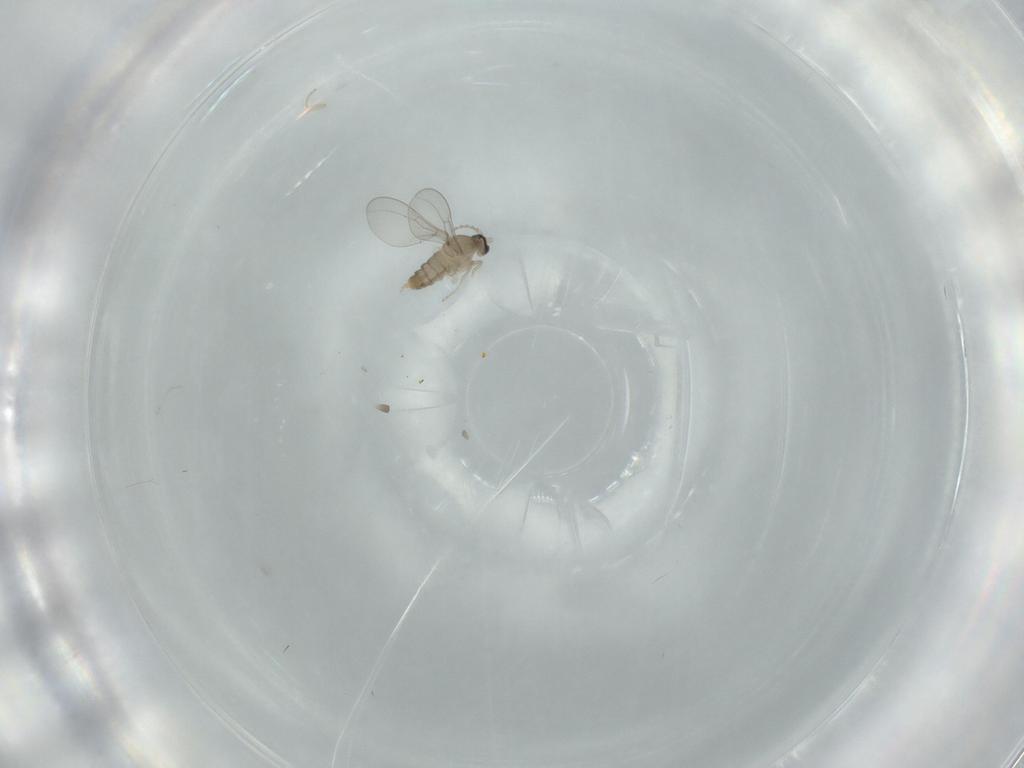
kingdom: Animalia
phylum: Arthropoda
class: Insecta
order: Diptera
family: Cecidomyiidae
